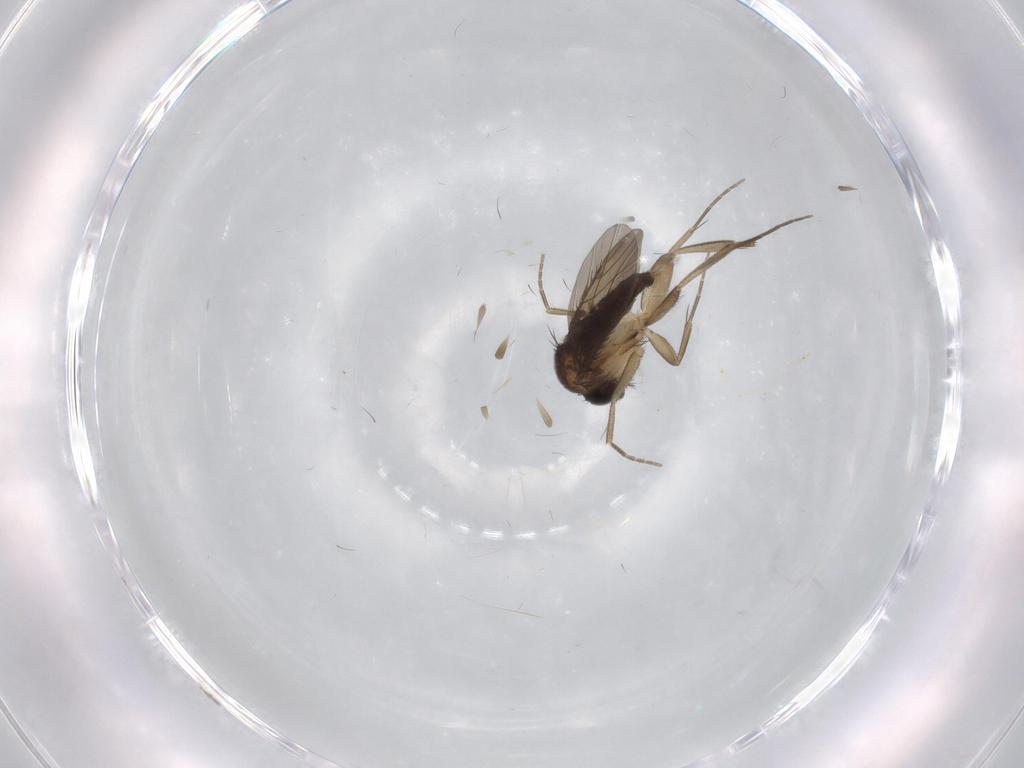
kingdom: Animalia
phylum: Arthropoda
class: Insecta
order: Diptera
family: Phoridae
